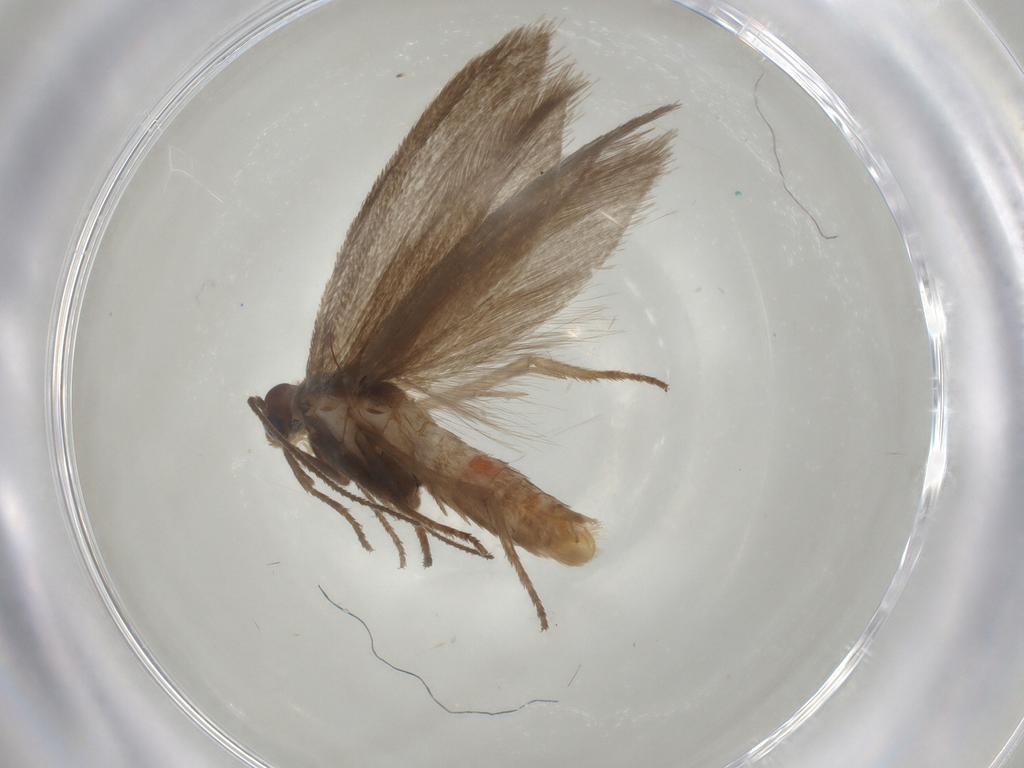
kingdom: Animalia
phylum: Arthropoda
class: Insecta
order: Lepidoptera
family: Limacodidae
